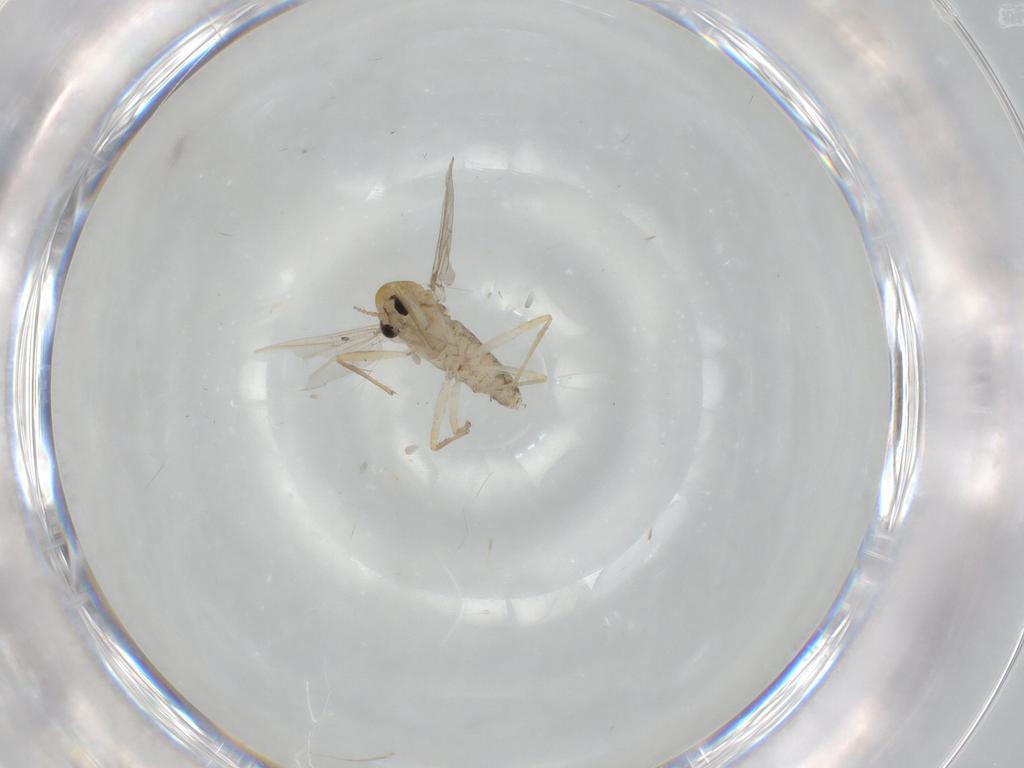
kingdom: Animalia
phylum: Arthropoda
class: Insecta
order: Diptera
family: Chironomidae
